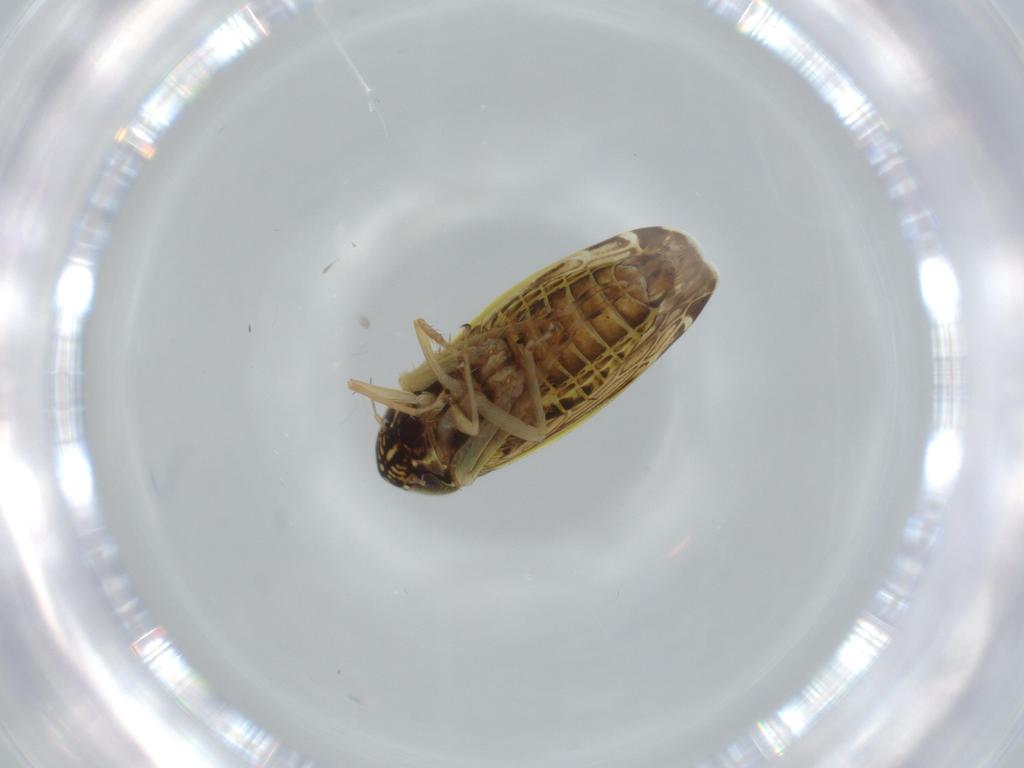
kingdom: Animalia
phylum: Arthropoda
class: Insecta
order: Hemiptera
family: Cicadellidae
